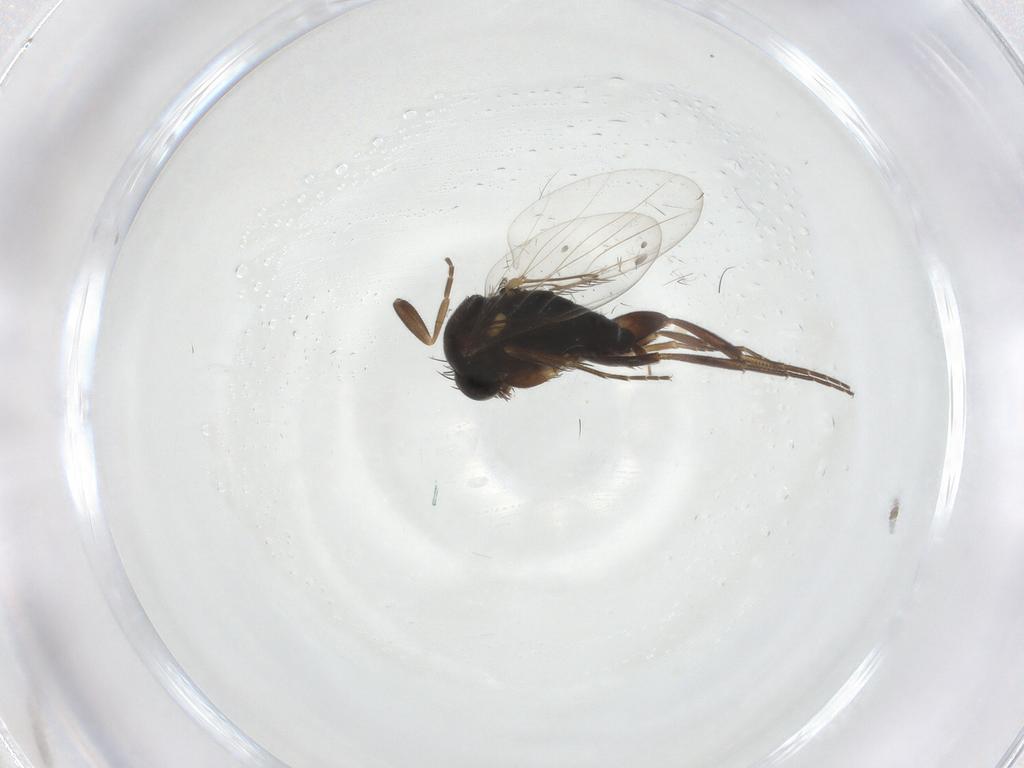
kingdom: Animalia
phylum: Arthropoda
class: Insecta
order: Diptera
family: Phoridae
